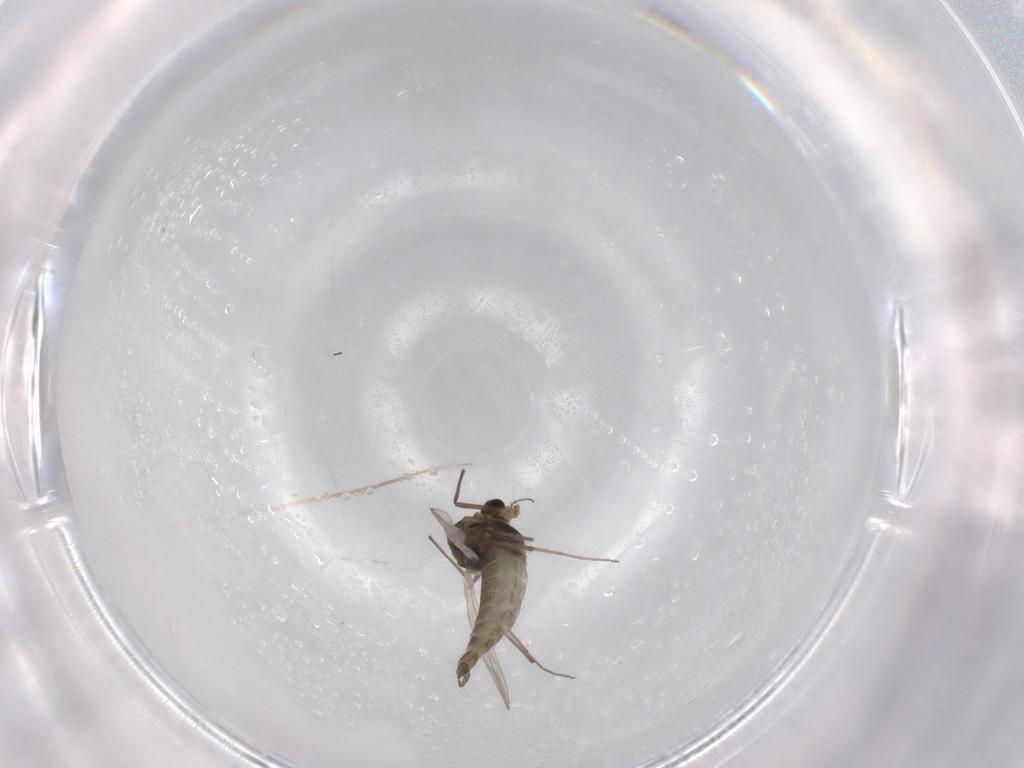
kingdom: Animalia
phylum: Arthropoda
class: Insecta
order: Diptera
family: Chironomidae
